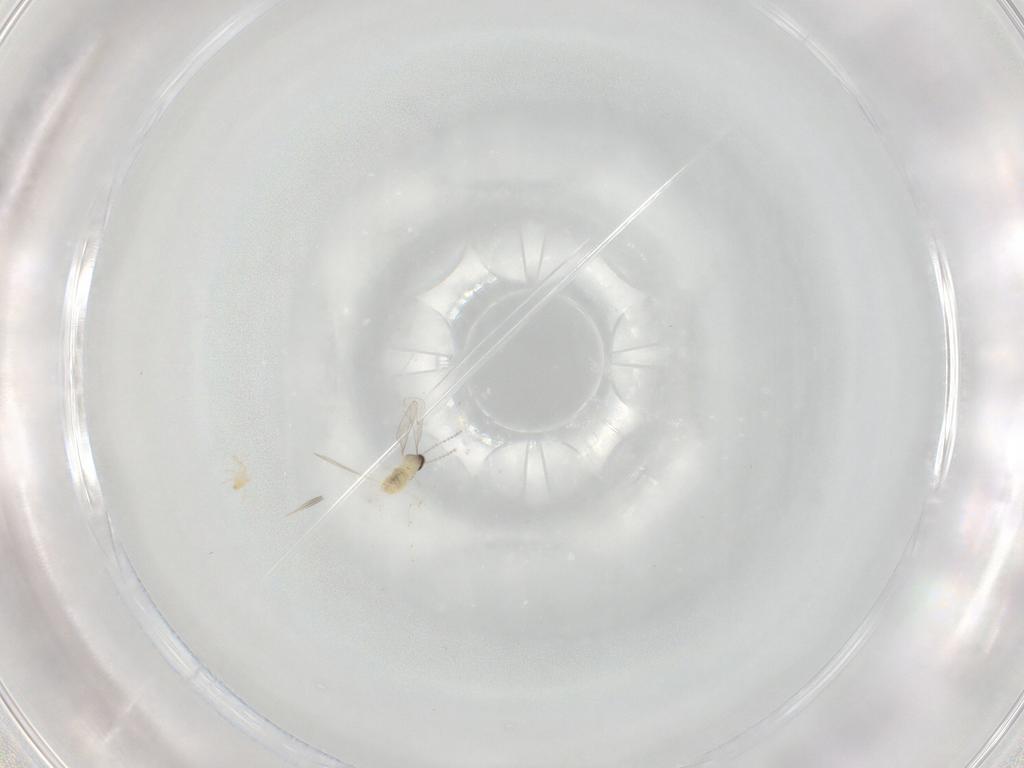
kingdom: Animalia
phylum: Arthropoda
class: Insecta
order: Diptera
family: Cecidomyiidae
